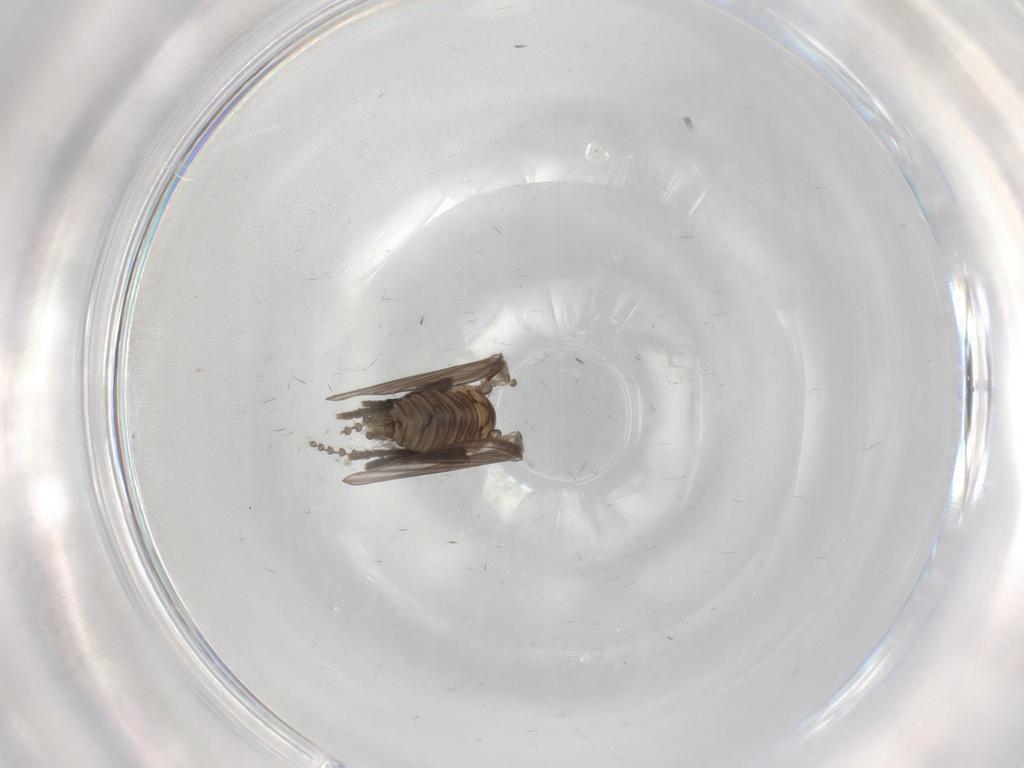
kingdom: Animalia
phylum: Arthropoda
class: Insecta
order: Diptera
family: Psychodidae
